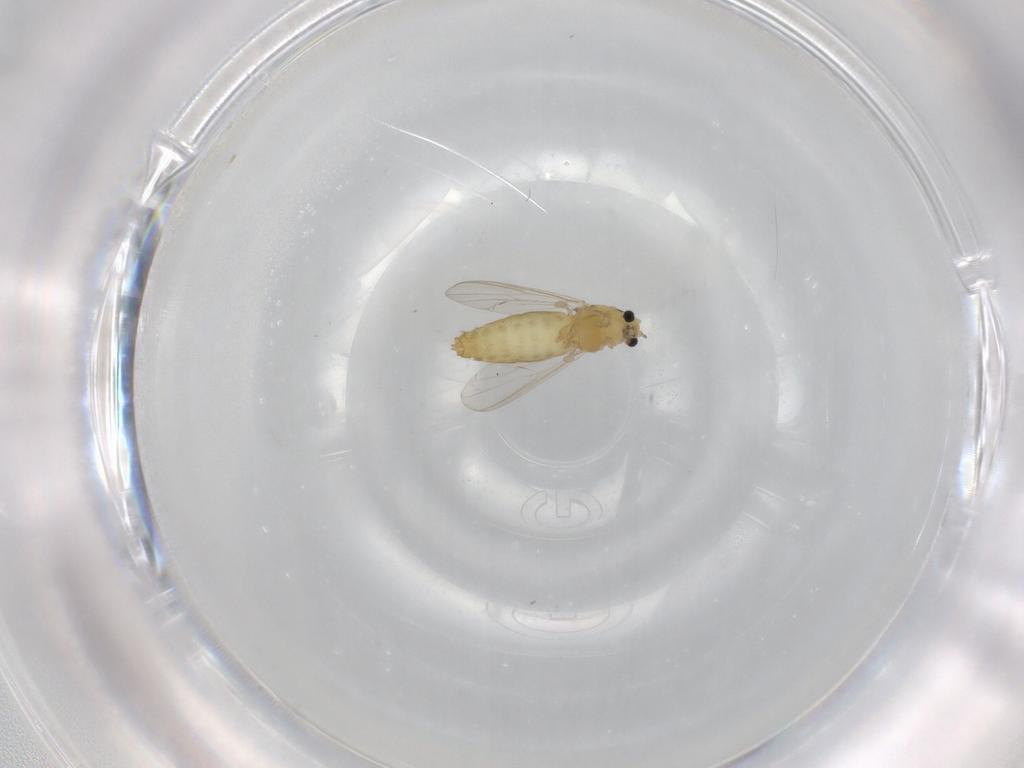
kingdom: Animalia
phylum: Arthropoda
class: Insecta
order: Diptera
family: Chironomidae
